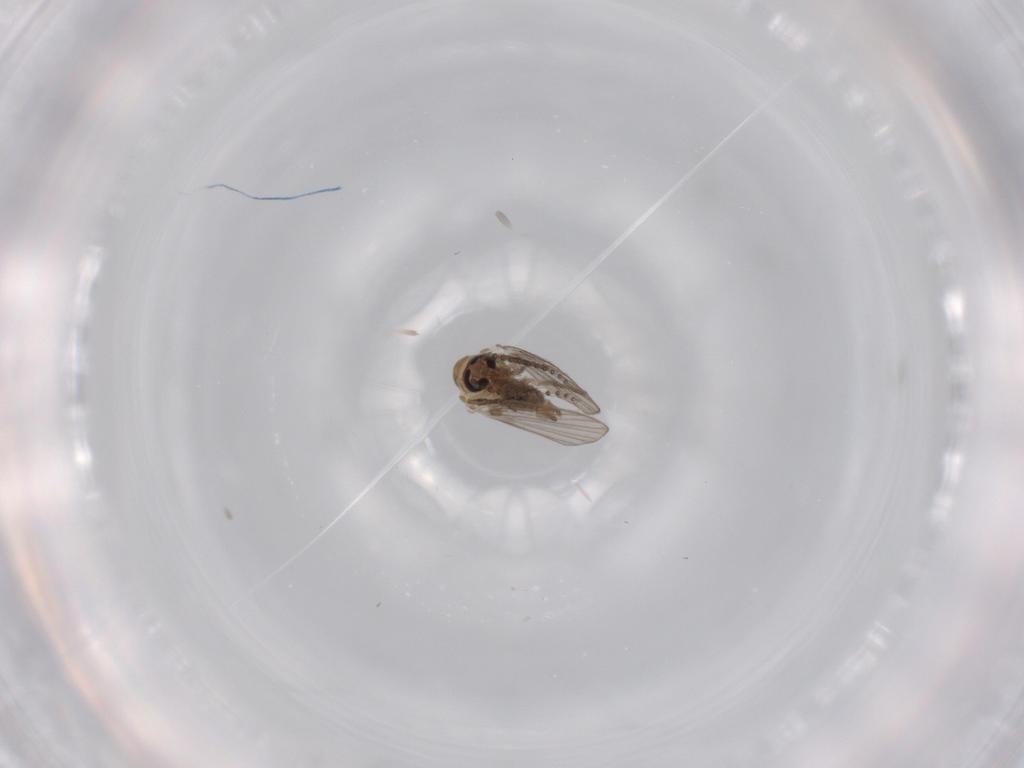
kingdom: Animalia
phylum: Arthropoda
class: Insecta
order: Diptera
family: Psychodidae
